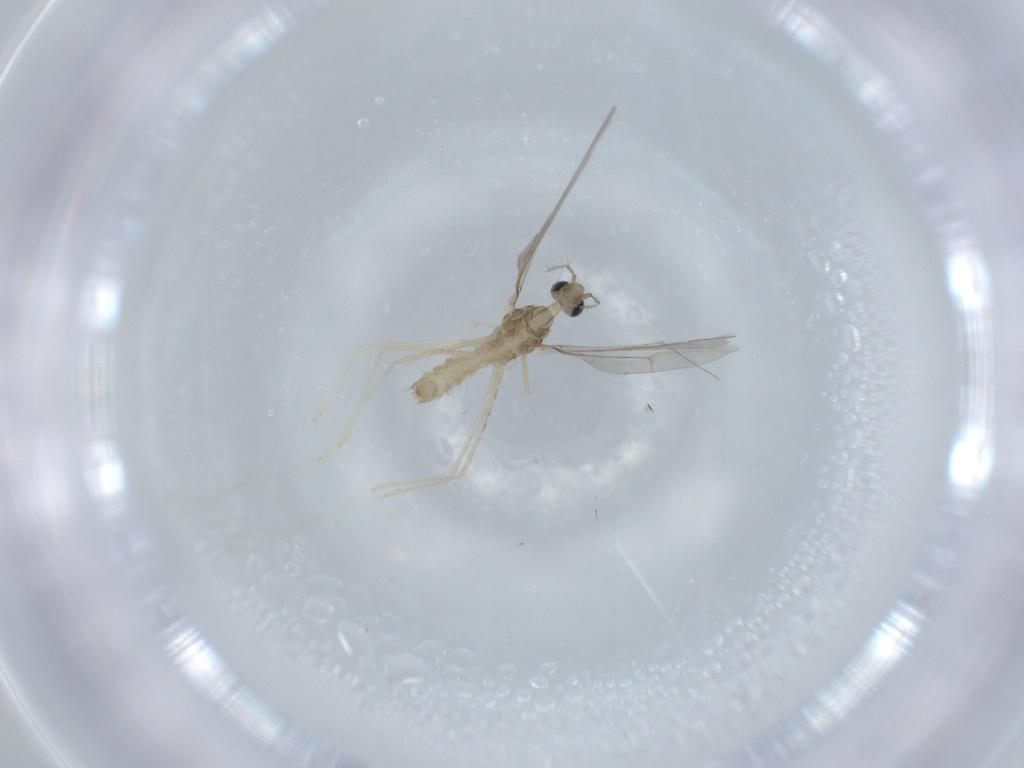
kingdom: Animalia
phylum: Arthropoda
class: Insecta
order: Diptera
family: Cecidomyiidae
